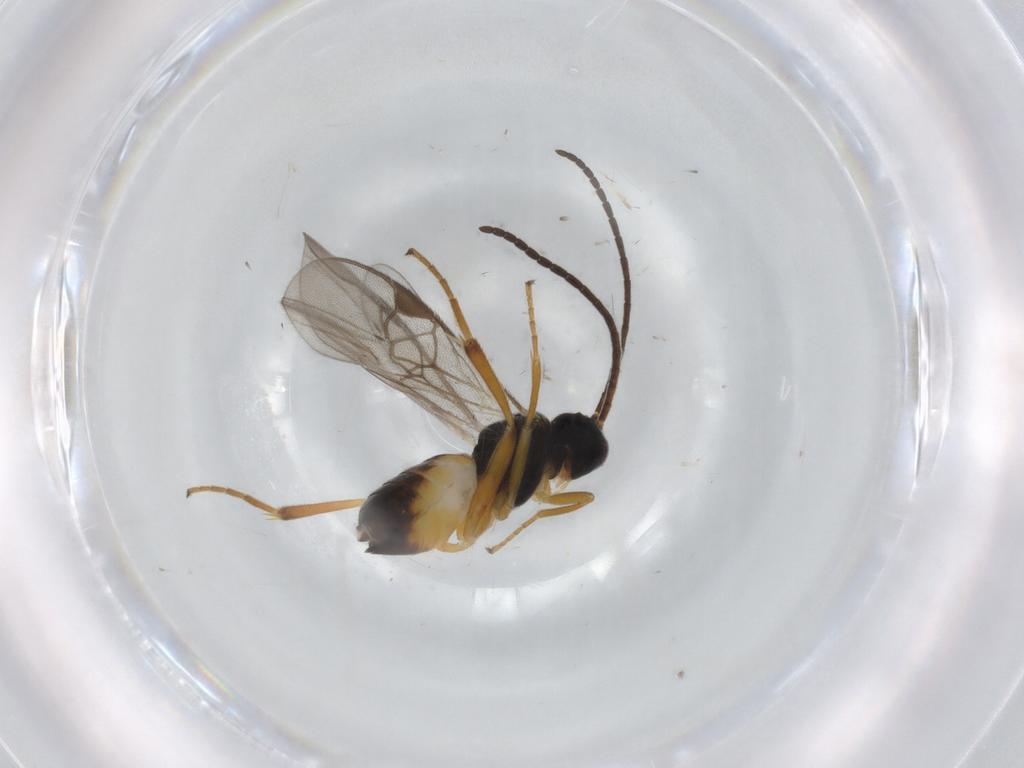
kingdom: Animalia
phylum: Arthropoda
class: Insecta
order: Hymenoptera
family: Braconidae
